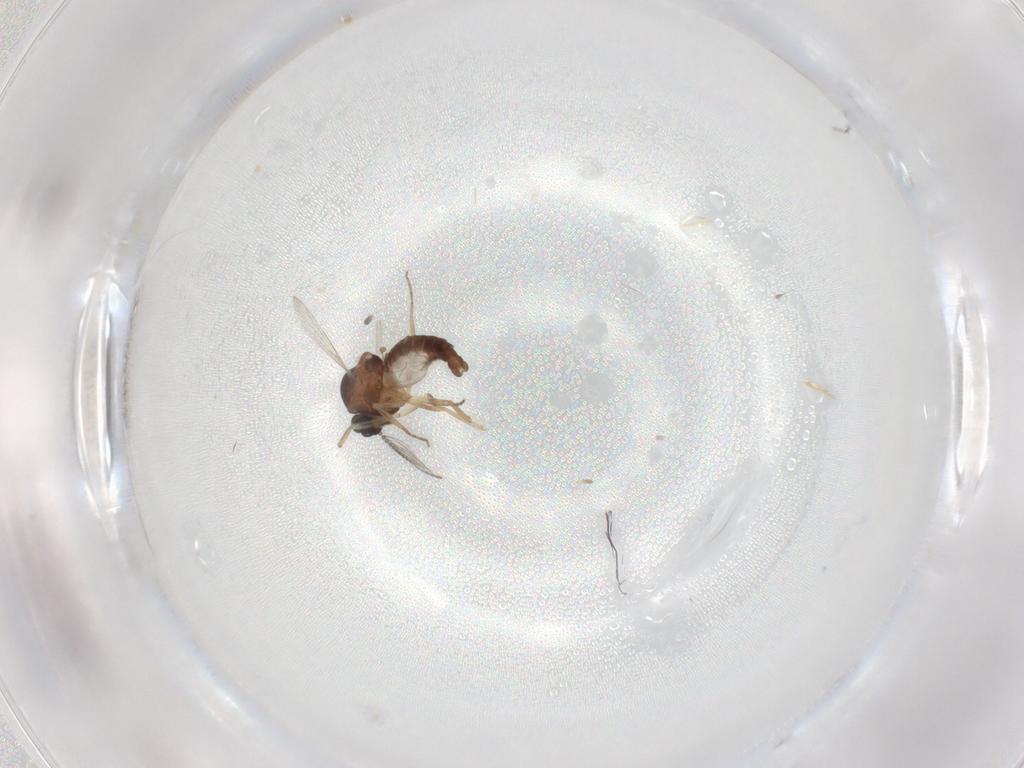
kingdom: Animalia
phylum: Arthropoda
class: Insecta
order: Diptera
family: Ceratopogonidae
